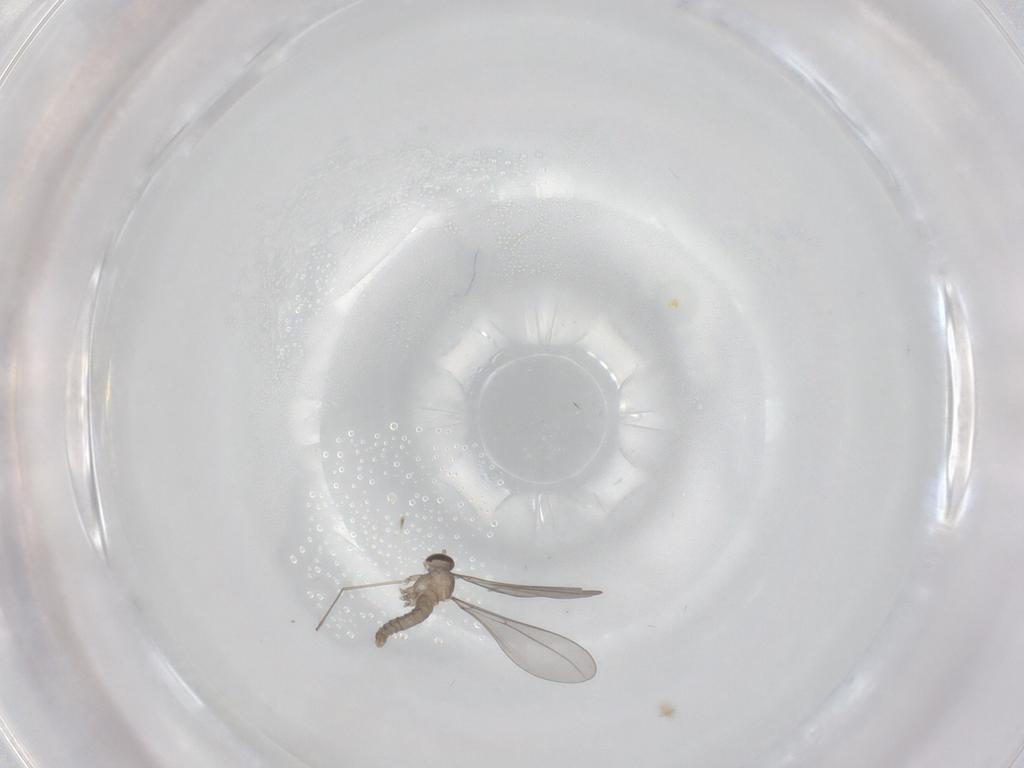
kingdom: Animalia
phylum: Arthropoda
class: Insecta
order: Diptera
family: Cecidomyiidae
